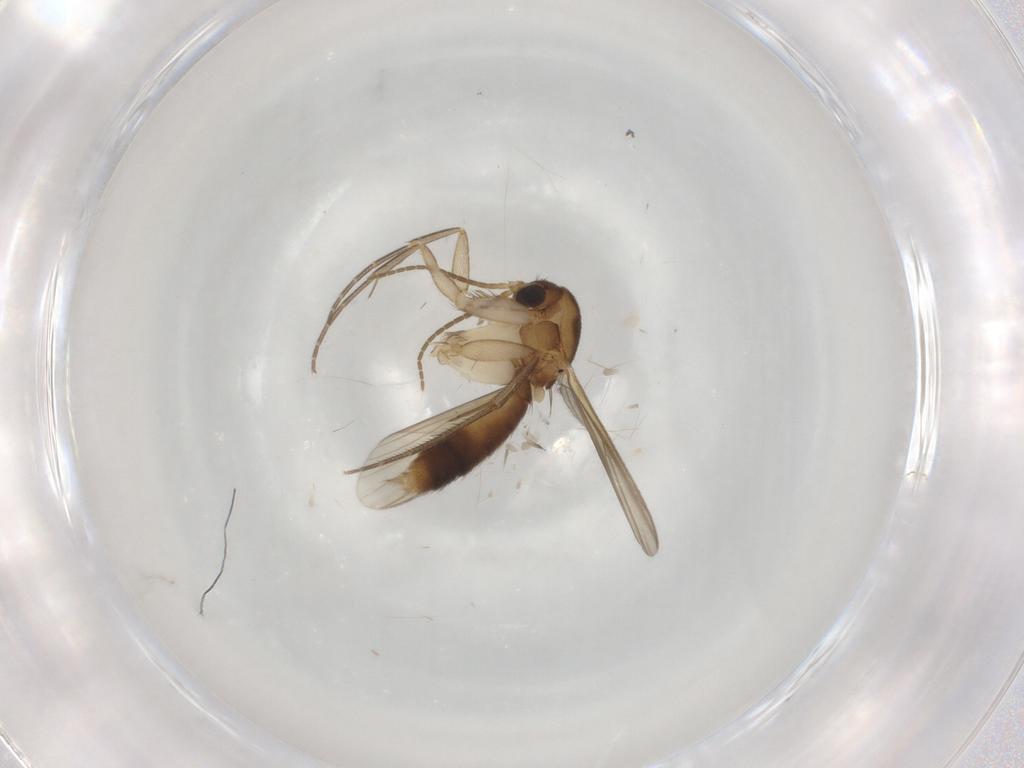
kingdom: Animalia
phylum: Arthropoda
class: Insecta
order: Diptera
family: Mycetophilidae
